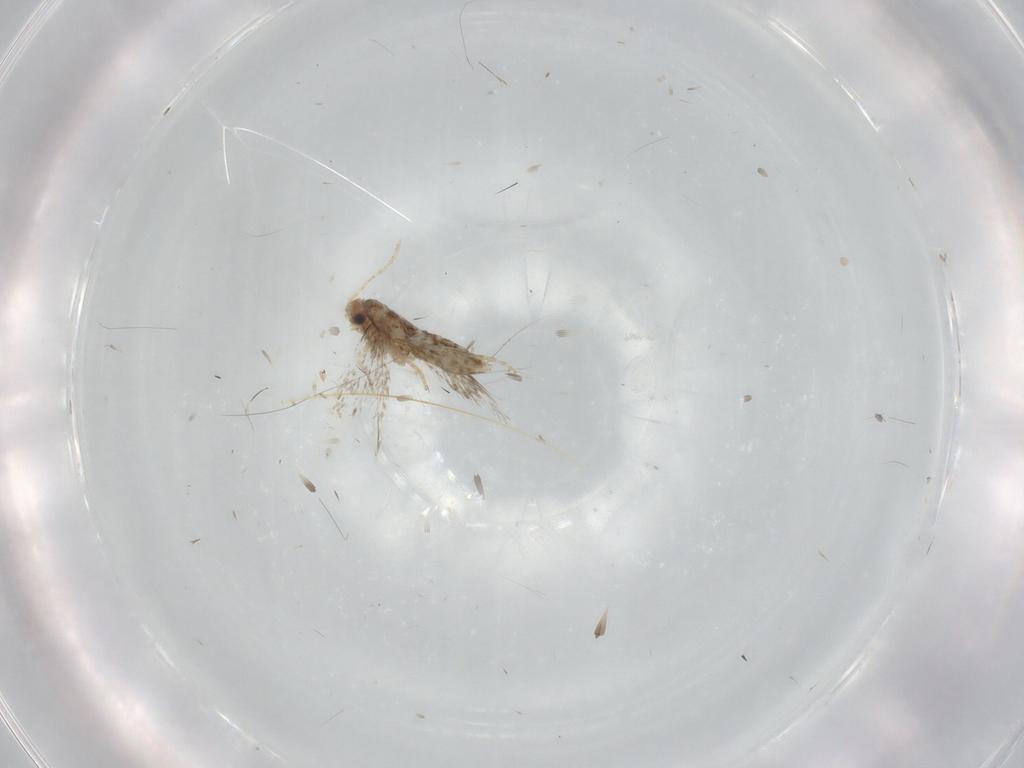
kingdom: Animalia
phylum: Arthropoda
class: Insecta
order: Lepidoptera
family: Nepticulidae
